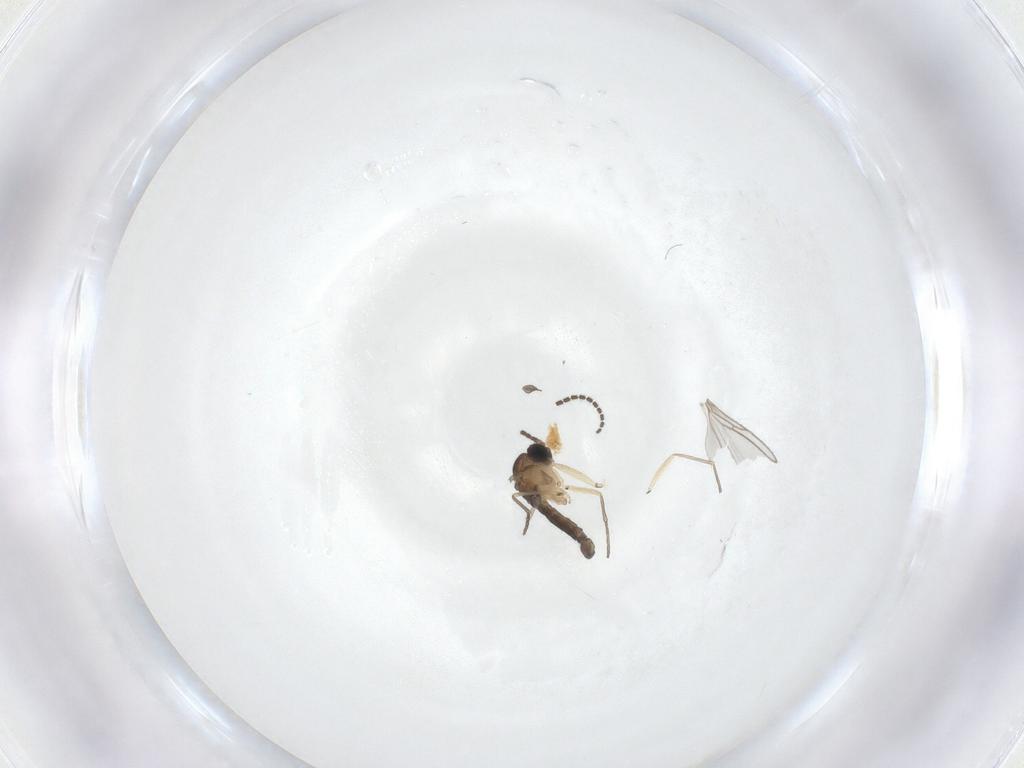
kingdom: Animalia
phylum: Arthropoda
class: Insecta
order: Diptera
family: Sciaridae
